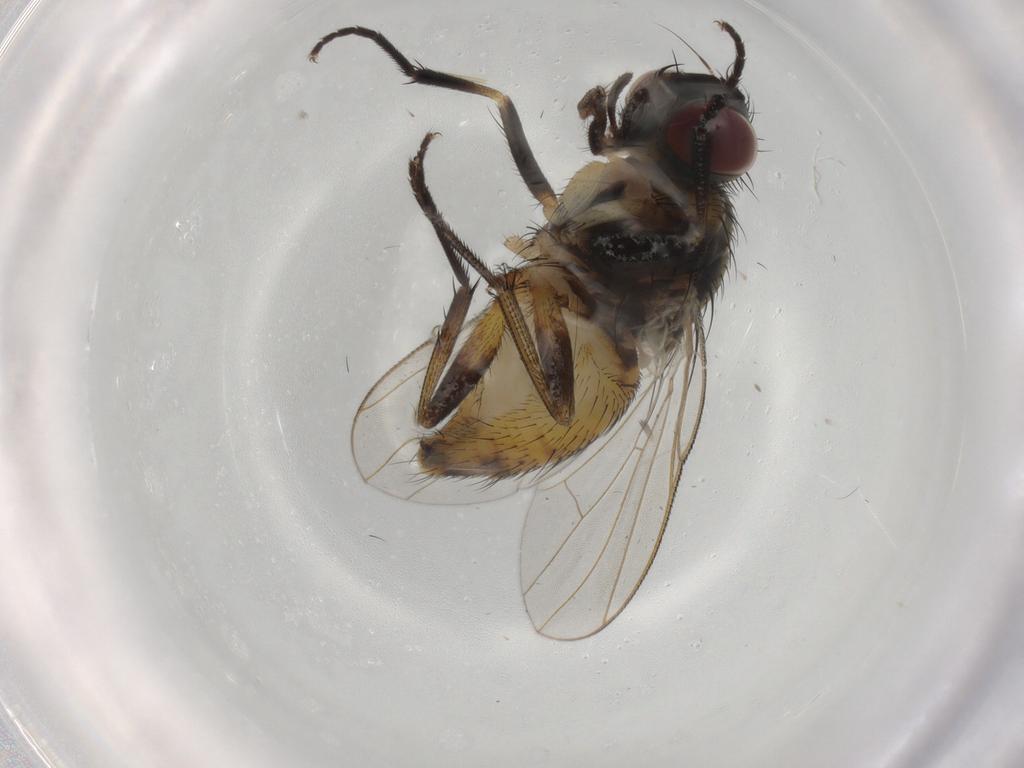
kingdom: Animalia
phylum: Arthropoda
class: Insecta
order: Diptera
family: Muscidae
